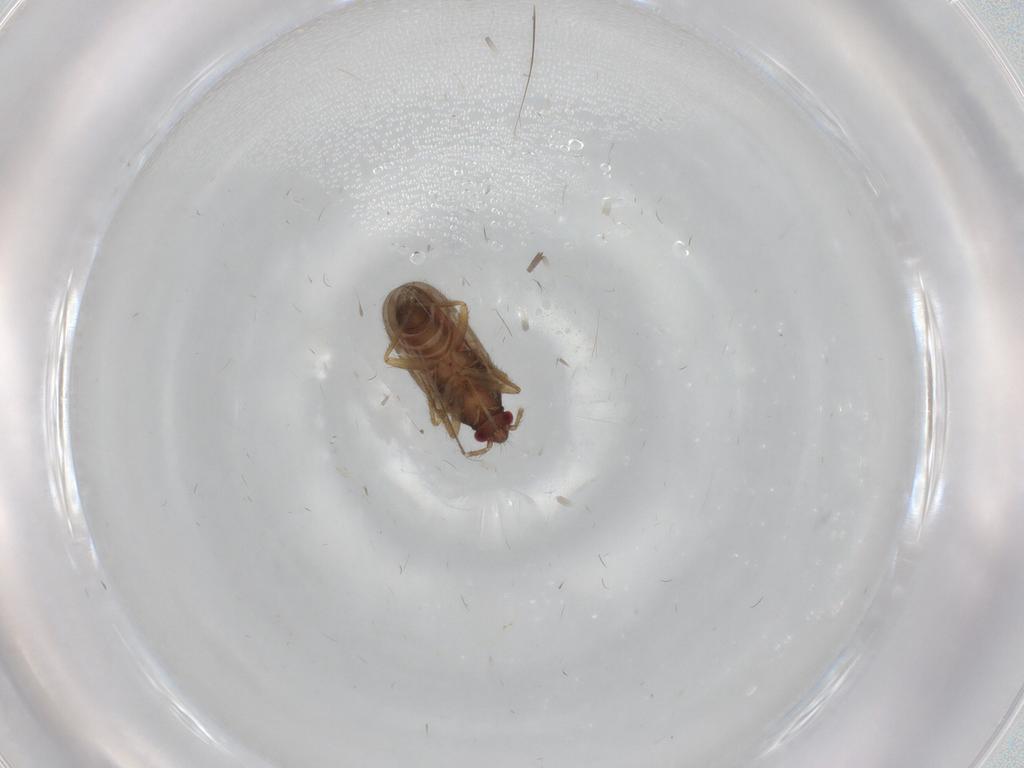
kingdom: Animalia
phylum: Arthropoda
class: Insecta
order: Hemiptera
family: Ceratocombidae
